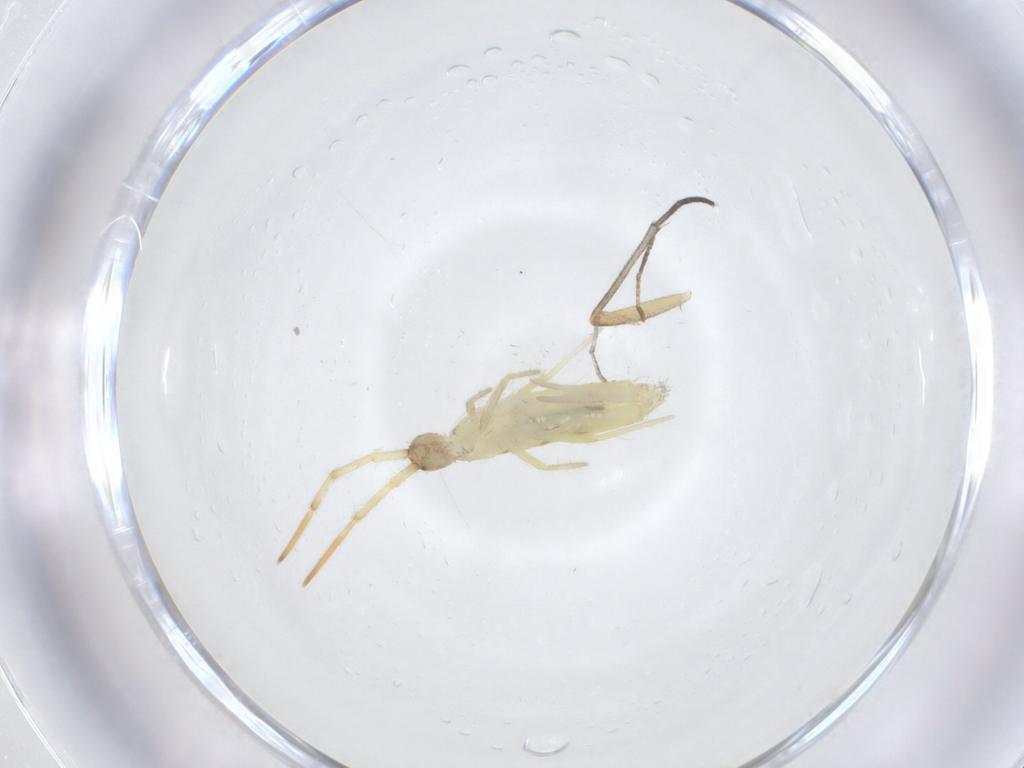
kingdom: Animalia
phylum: Arthropoda
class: Collembola
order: Entomobryomorpha
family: Entomobryidae
